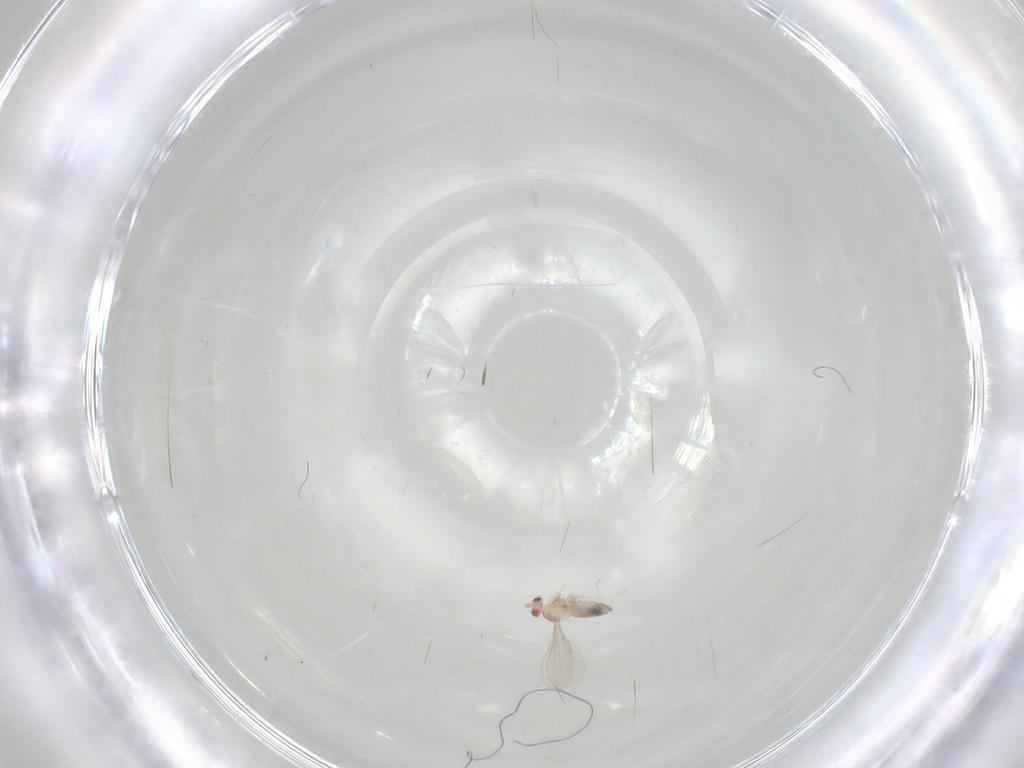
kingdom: Animalia
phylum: Arthropoda
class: Insecta
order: Diptera
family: Cecidomyiidae
